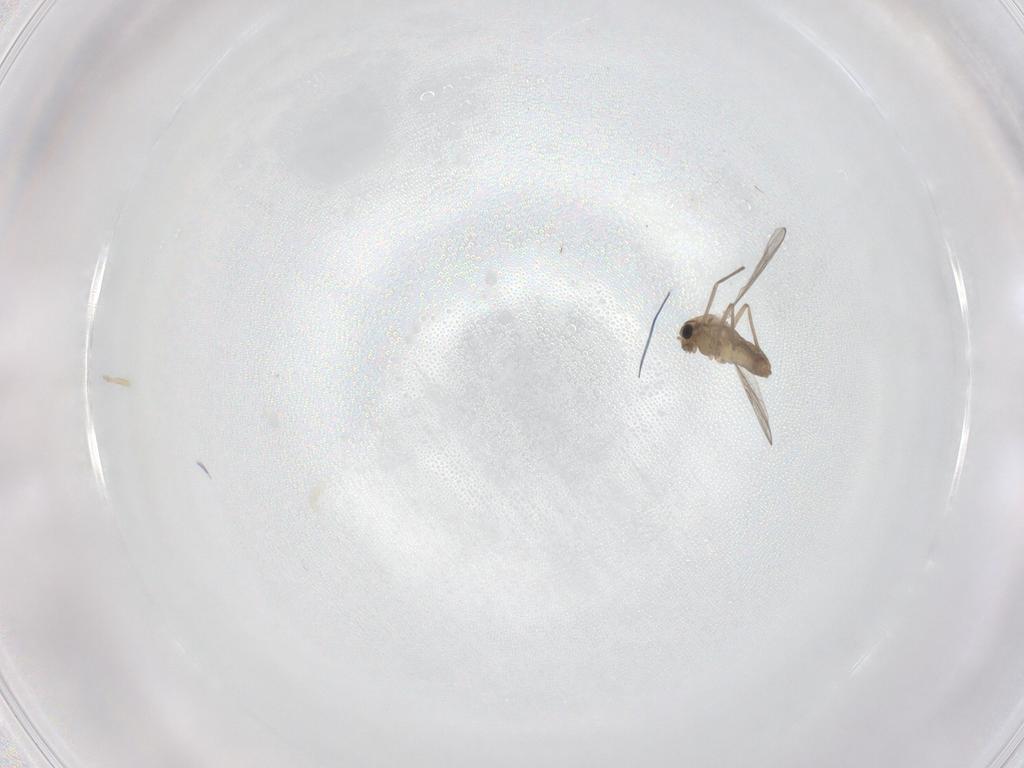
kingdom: Animalia
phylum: Arthropoda
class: Insecta
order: Diptera
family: Chironomidae
